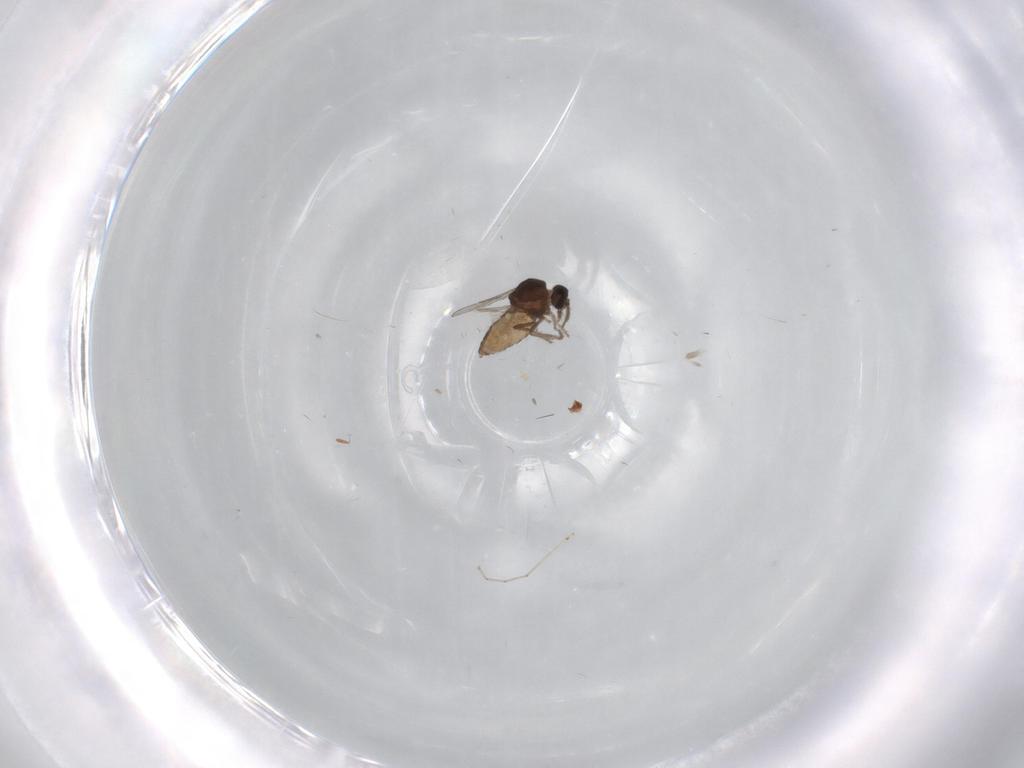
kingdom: Animalia
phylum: Arthropoda
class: Insecta
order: Diptera
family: Ceratopogonidae
